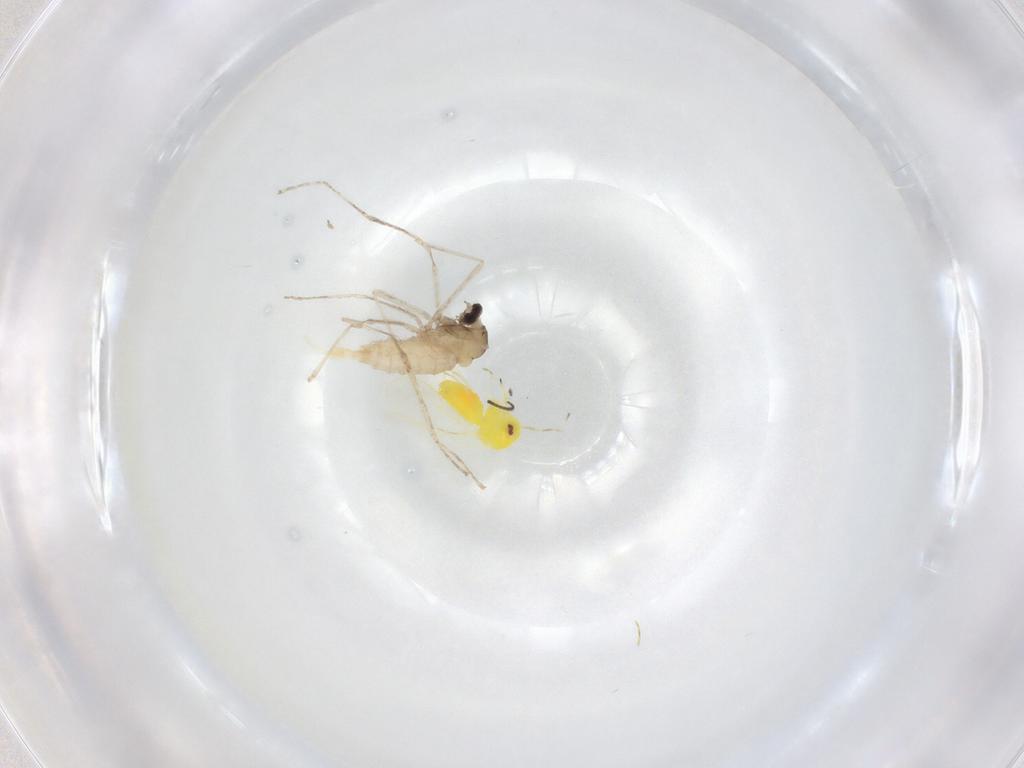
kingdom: Animalia
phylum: Arthropoda
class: Insecta
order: Diptera
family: Cecidomyiidae
